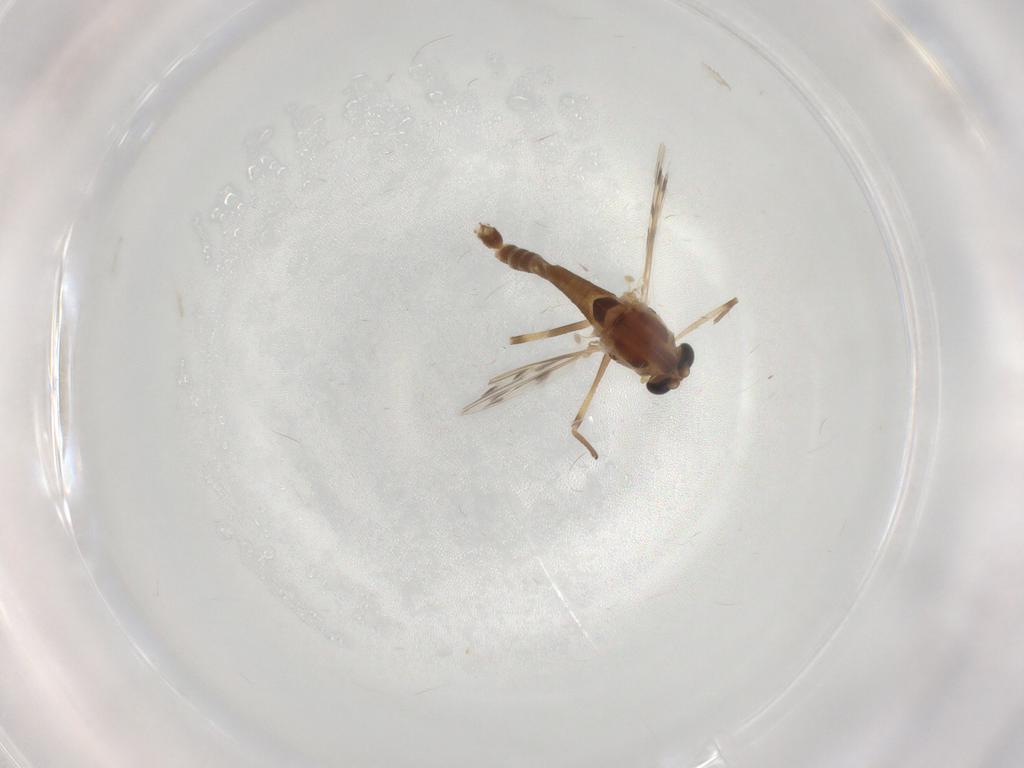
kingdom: Animalia
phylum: Arthropoda
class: Insecta
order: Diptera
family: Chironomidae
